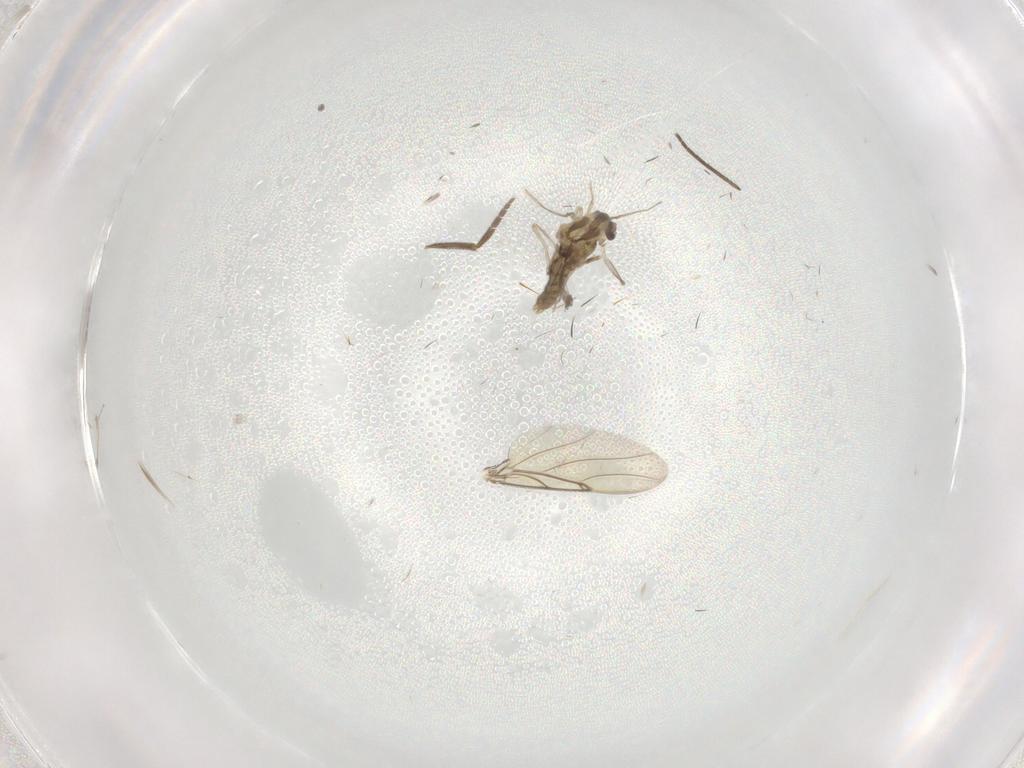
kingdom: Animalia
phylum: Arthropoda
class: Insecta
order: Diptera
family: Chironomidae
